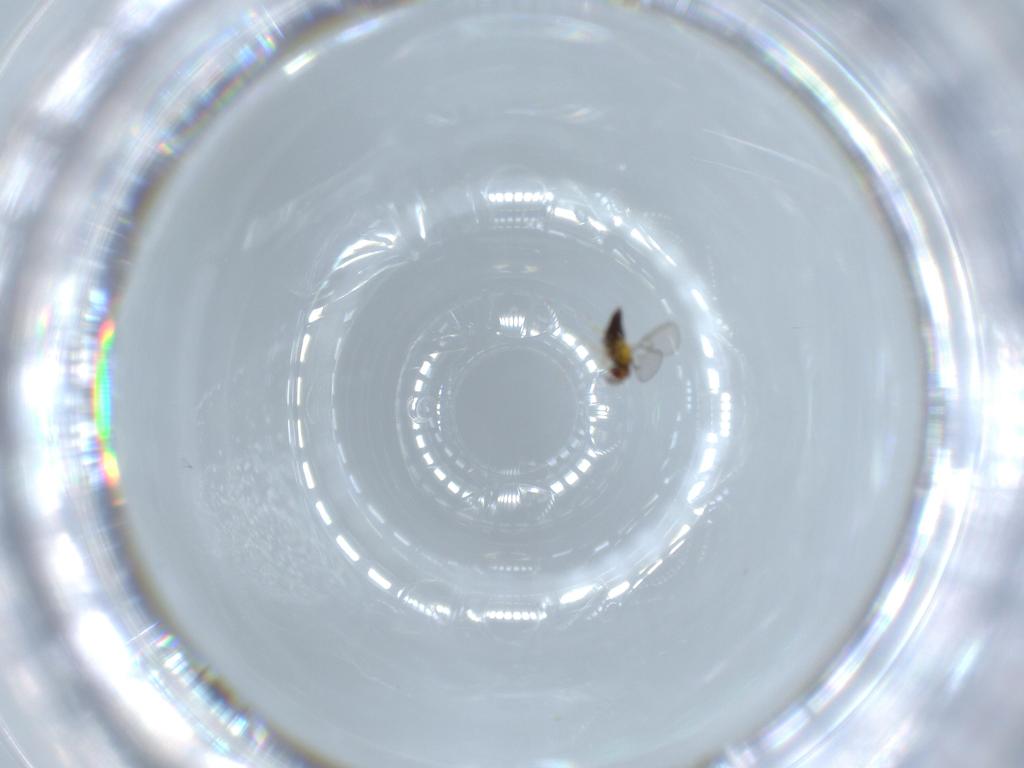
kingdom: Animalia
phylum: Arthropoda
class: Insecta
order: Hymenoptera
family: Trichogrammatidae
